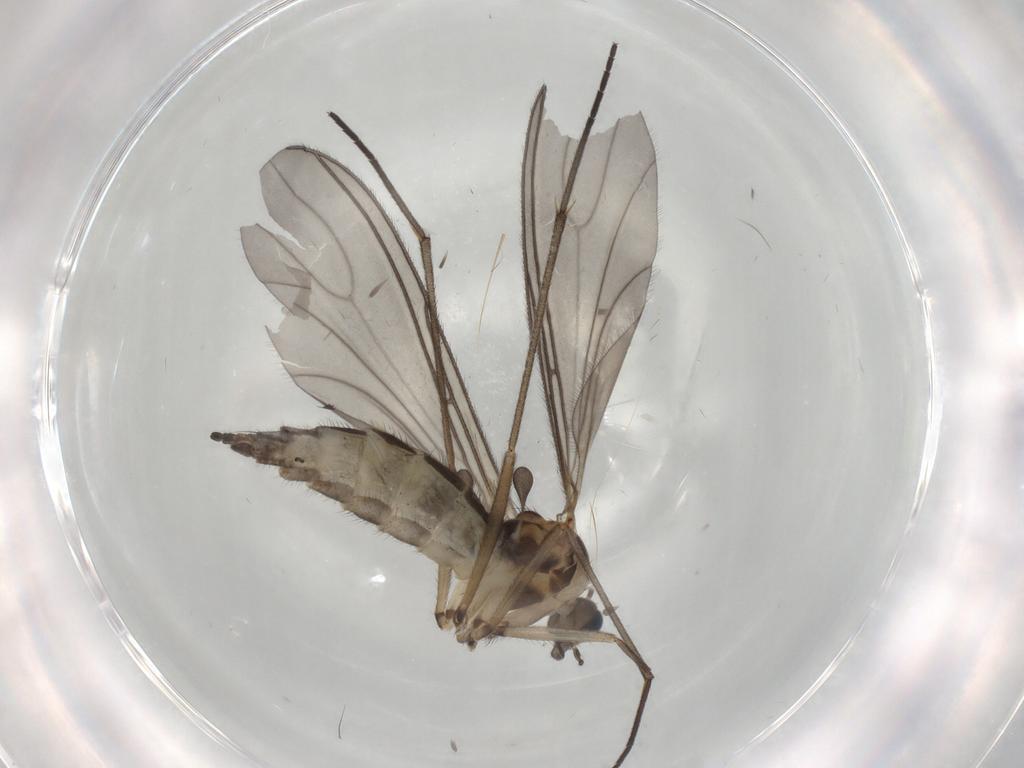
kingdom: Animalia
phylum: Arthropoda
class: Insecta
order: Diptera
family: Sciaridae
